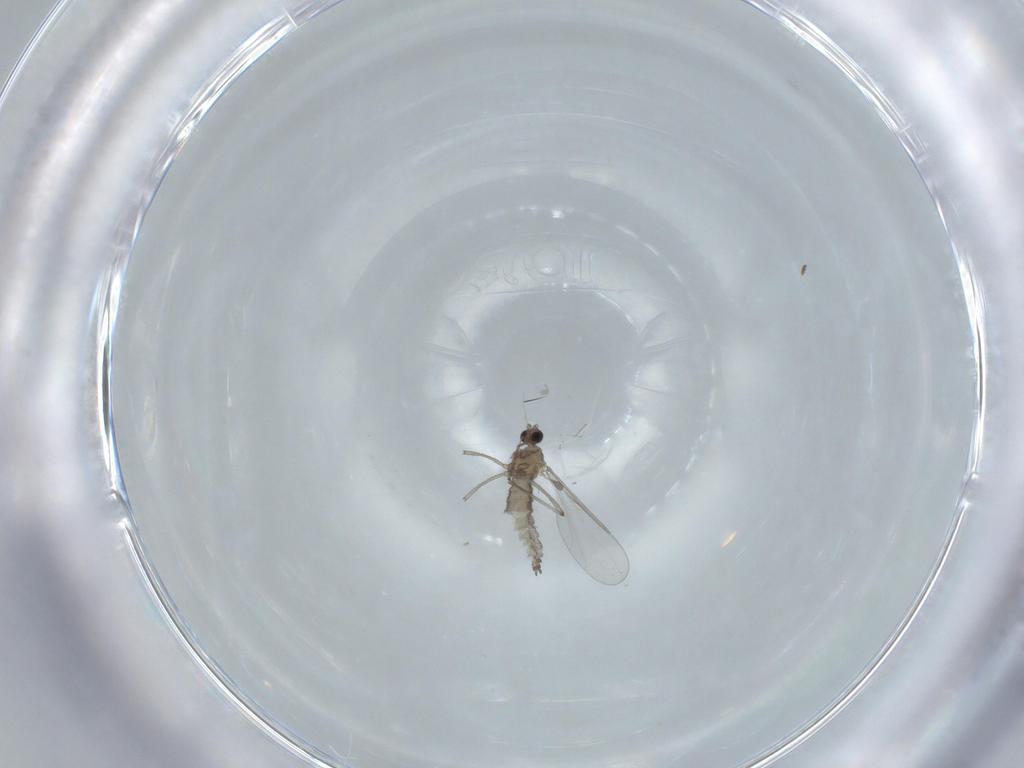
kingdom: Animalia
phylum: Arthropoda
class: Insecta
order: Diptera
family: Cecidomyiidae
